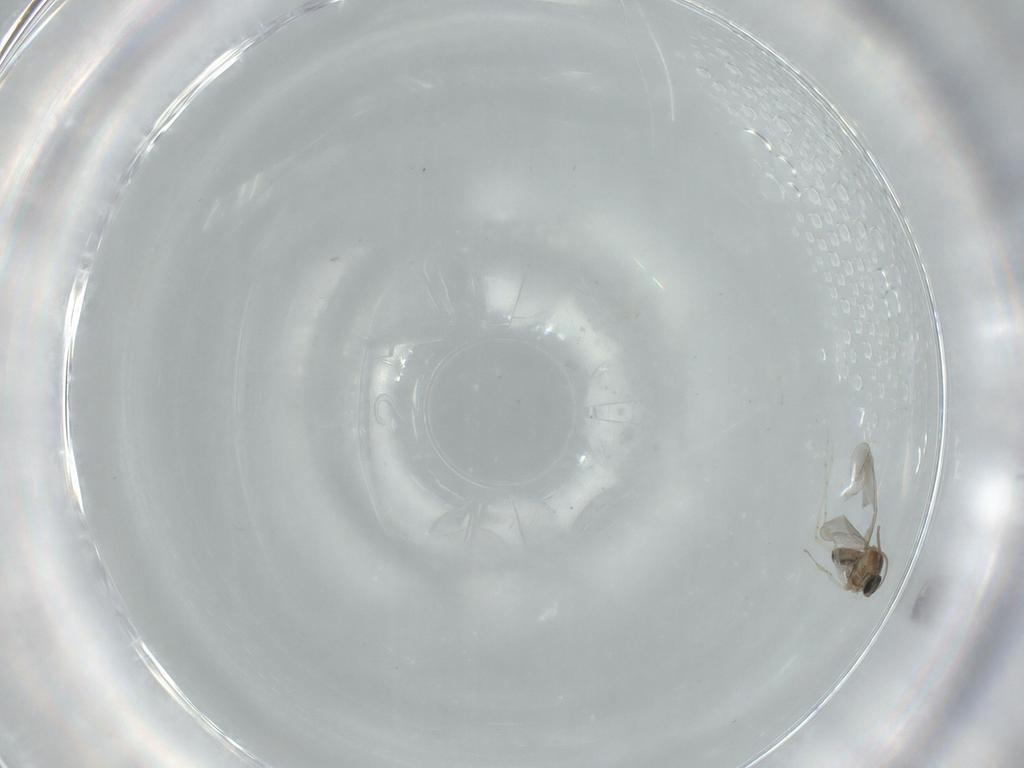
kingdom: Animalia
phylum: Arthropoda
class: Insecta
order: Diptera
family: Cecidomyiidae
